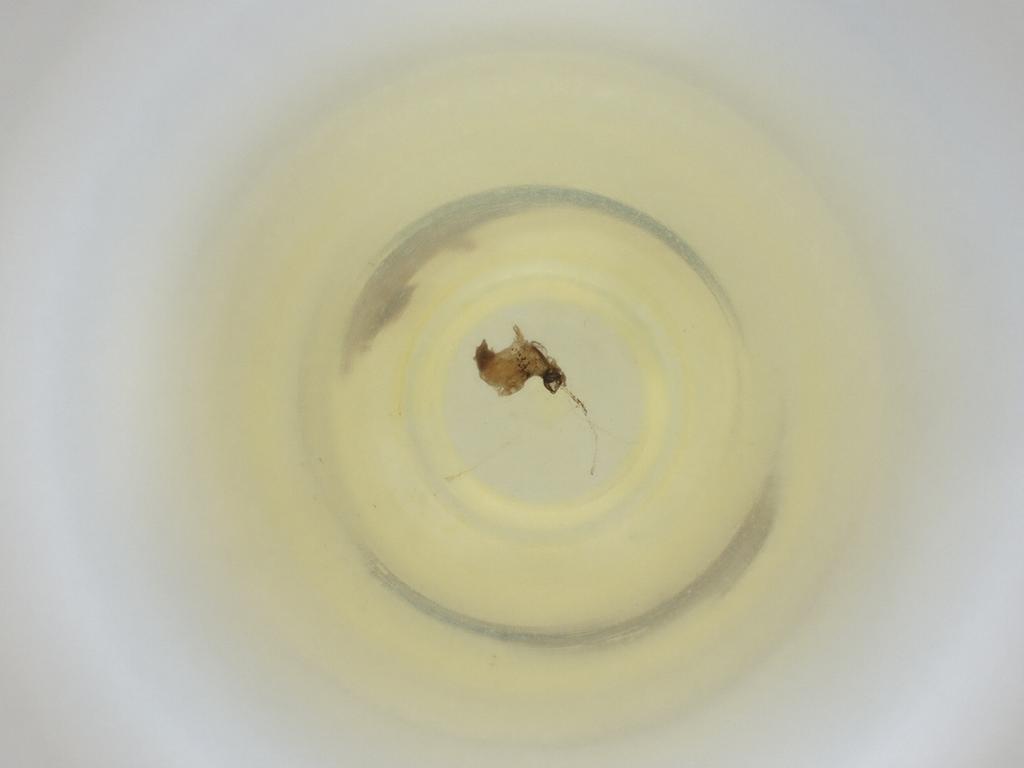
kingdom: Animalia
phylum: Arthropoda
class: Insecta
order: Diptera
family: Cecidomyiidae
